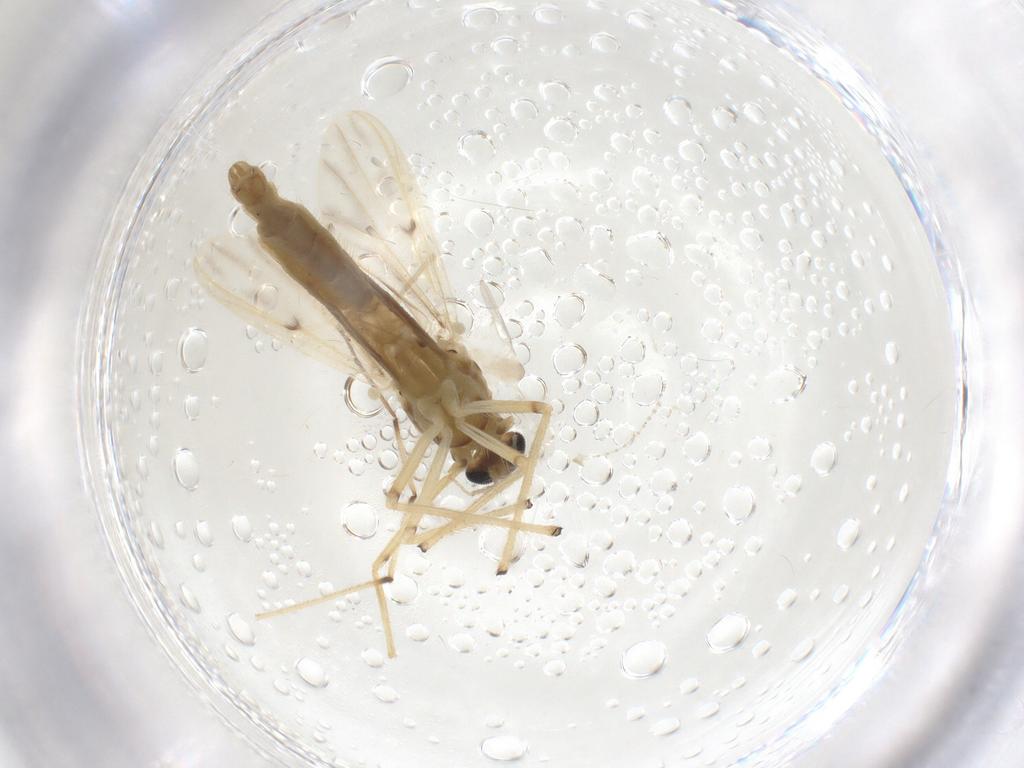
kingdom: Animalia
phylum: Arthropoda
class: Insecta
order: Diptera
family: Chironomidae
